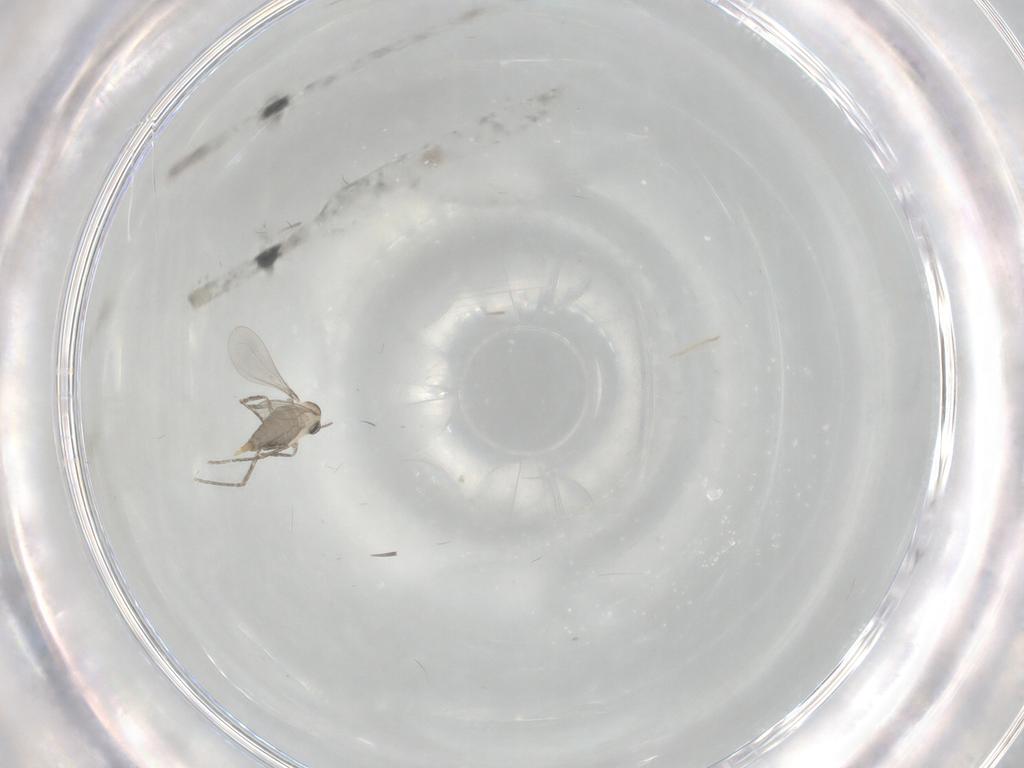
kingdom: Animalia
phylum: Arthropoda
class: Insecta
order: Diptera
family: Cecidomyiidae
